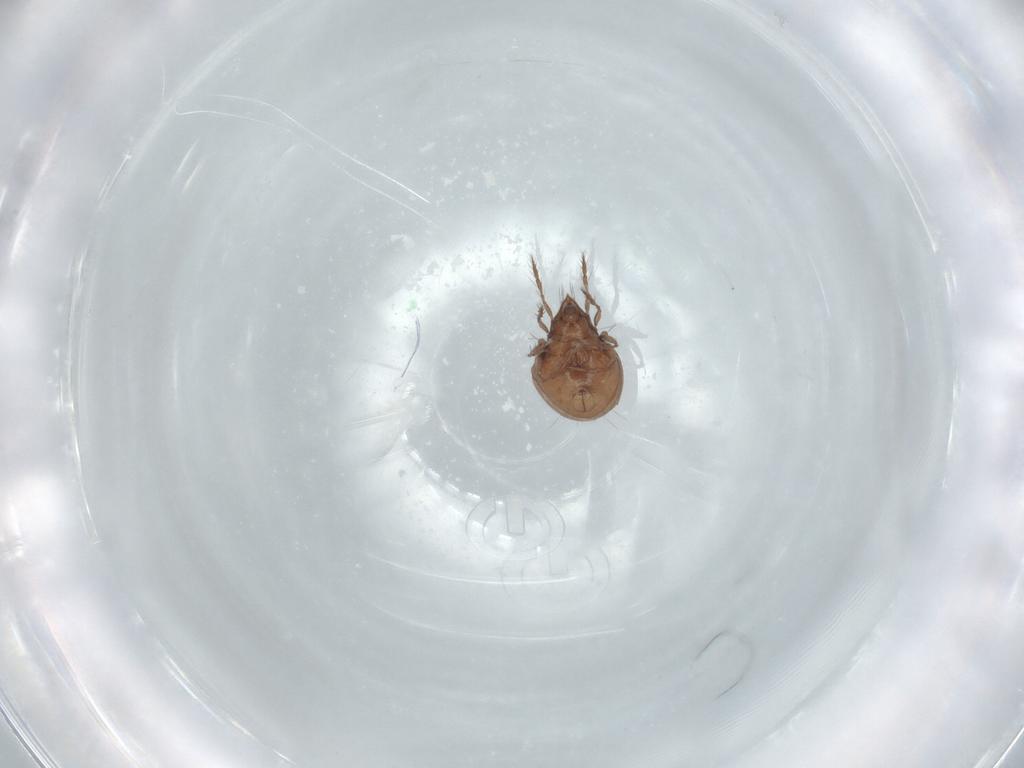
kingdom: Animalia
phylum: Arthropoda
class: Arachnida
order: Sarcoptiformes
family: Ceratoppiidae
